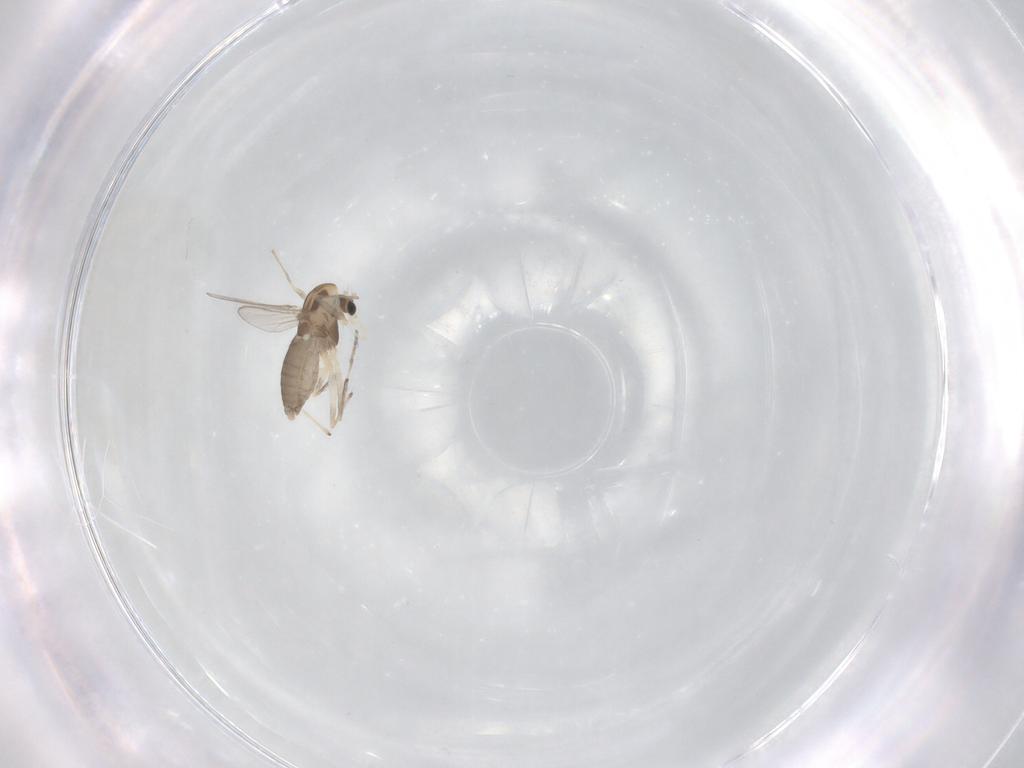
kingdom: Animalia
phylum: Arthropoda
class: Insecta
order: Diptera
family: Chironomidae
